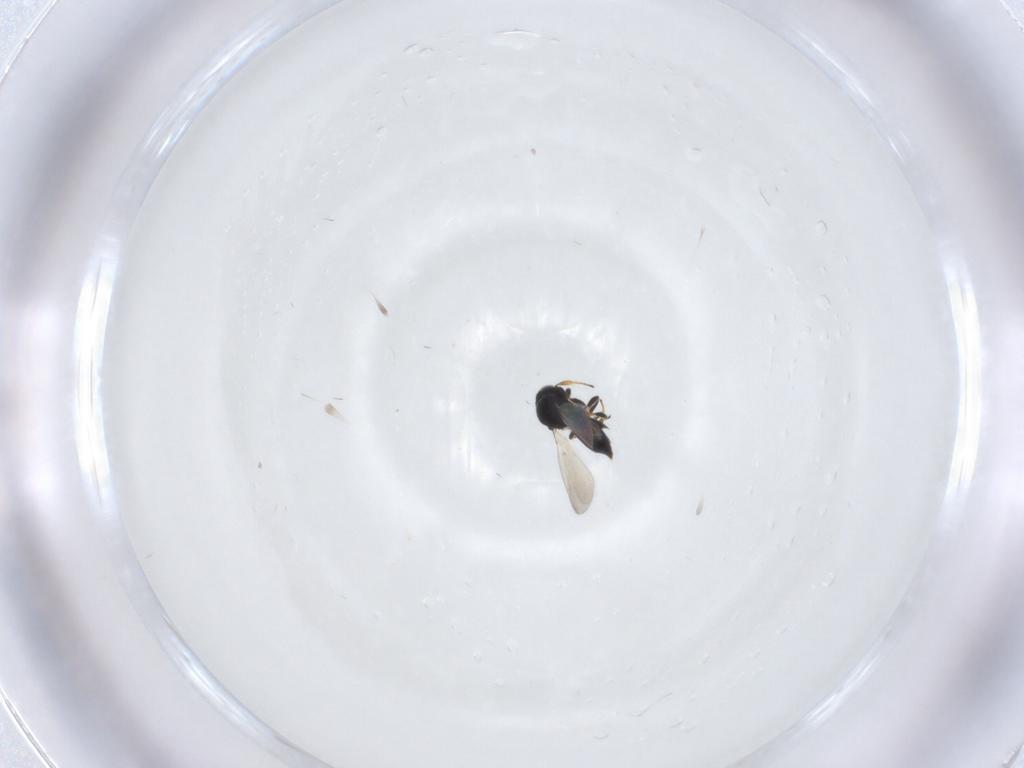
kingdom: Animalia
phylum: Arthropoda
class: Insecta
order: Hymenoptera
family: Platygastridae
